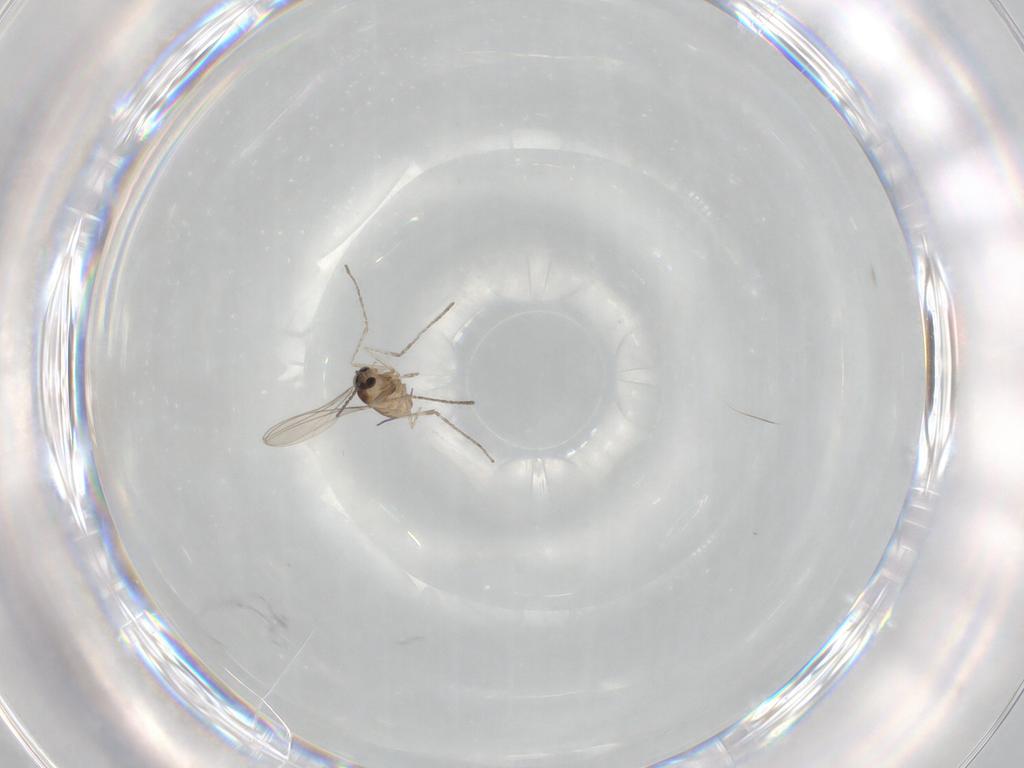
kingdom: Animalia
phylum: Arthropoda
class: Insecta
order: Diptera
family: Cecidomyiidae
